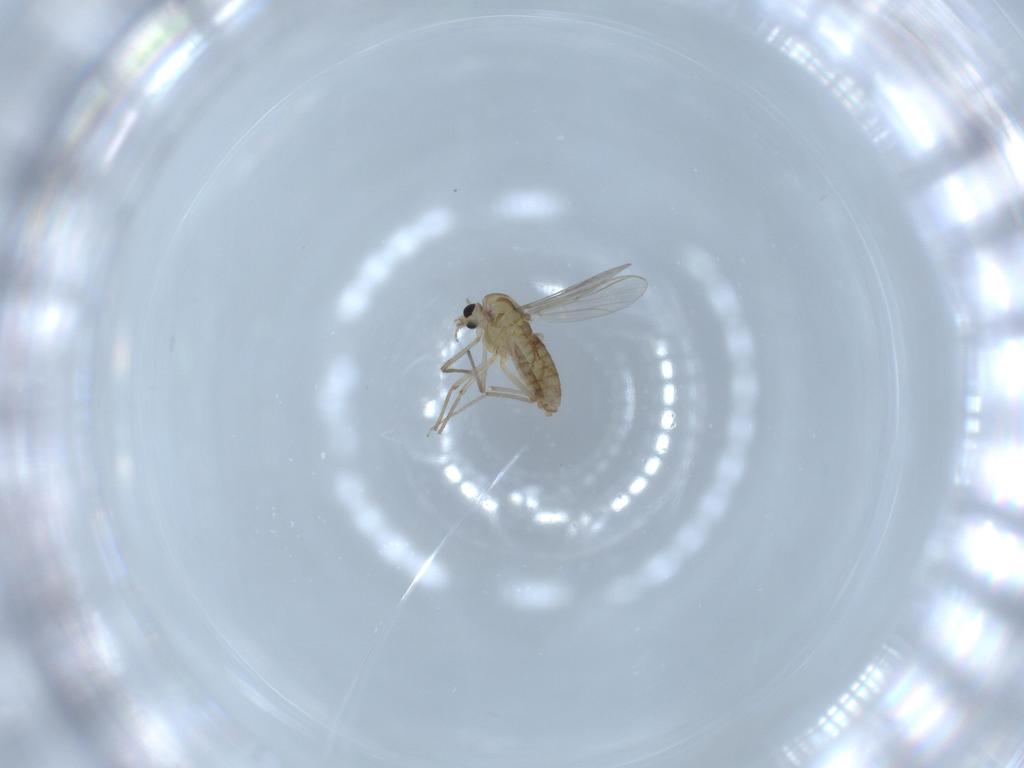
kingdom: Animalia
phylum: Arthropoda
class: Insecta
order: Diptera
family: Chironomidae
